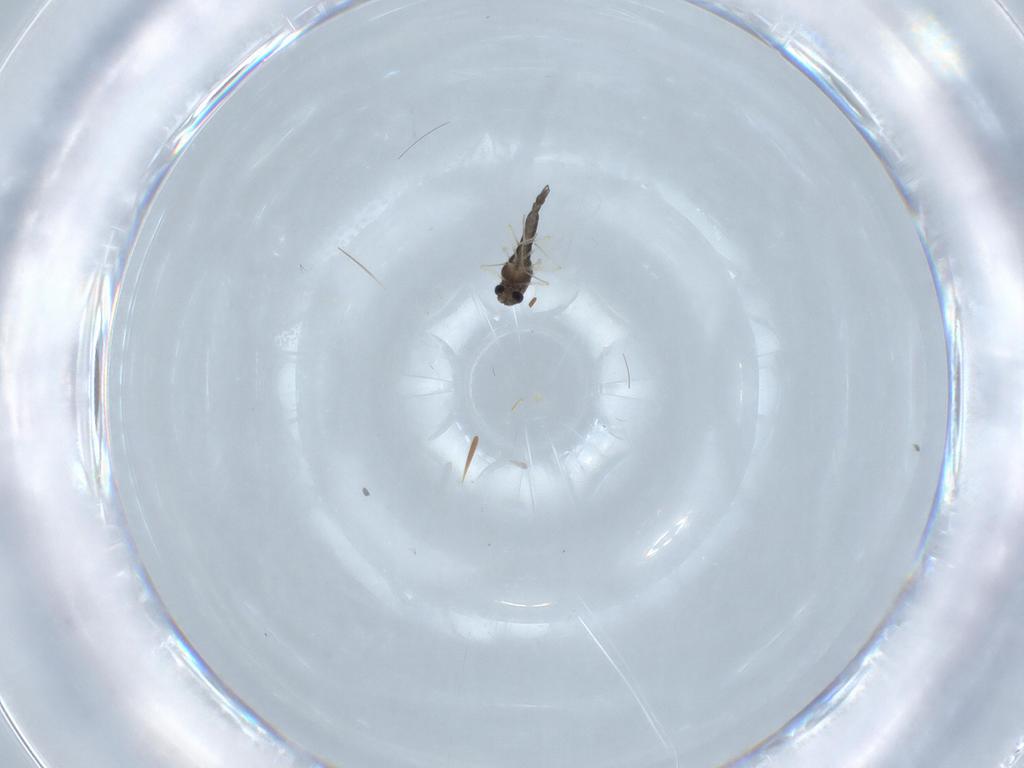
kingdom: Animalia
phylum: Arthropoda
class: Insecta
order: Diptera
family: Chironomidae
